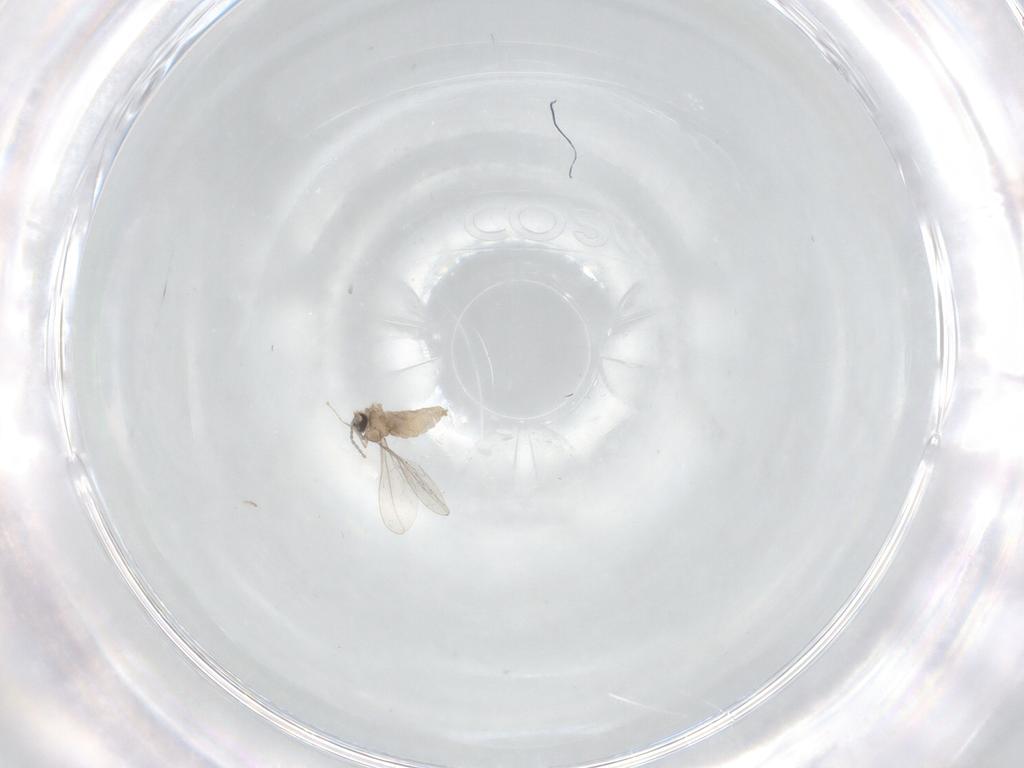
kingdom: Animalia
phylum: Arthropoda
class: Insecta
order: Diptera
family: Cecidomyiidae
